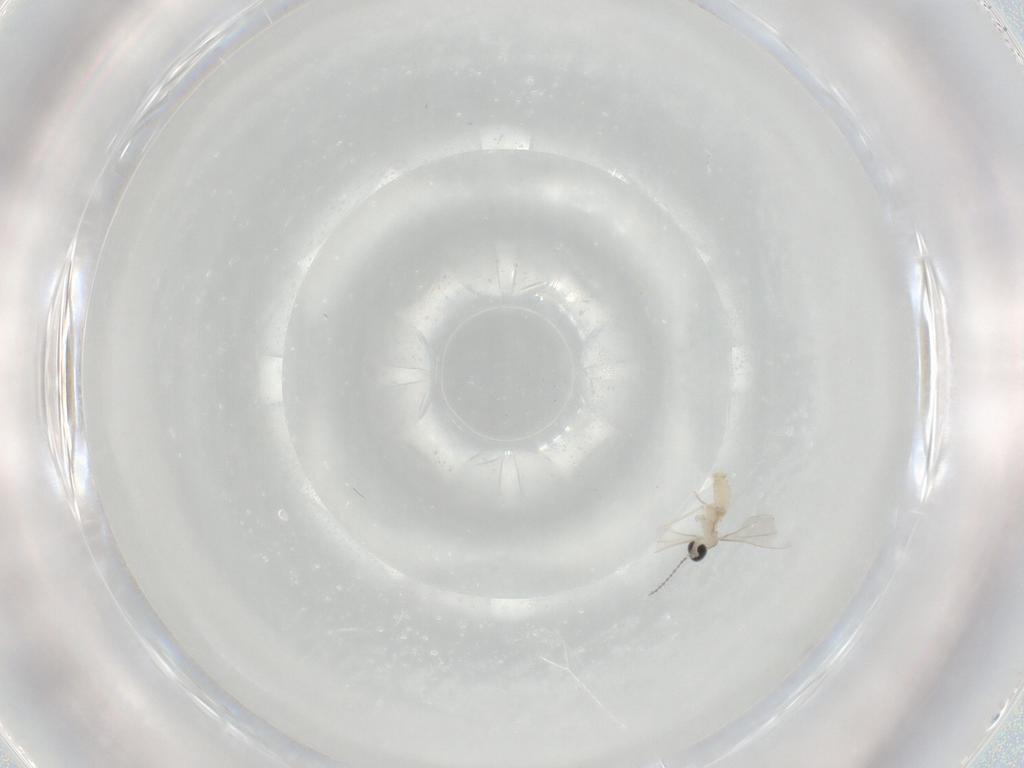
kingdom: Animalia
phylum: Arthropoda
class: Insecta
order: Diptera
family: Cecidomyiidae
